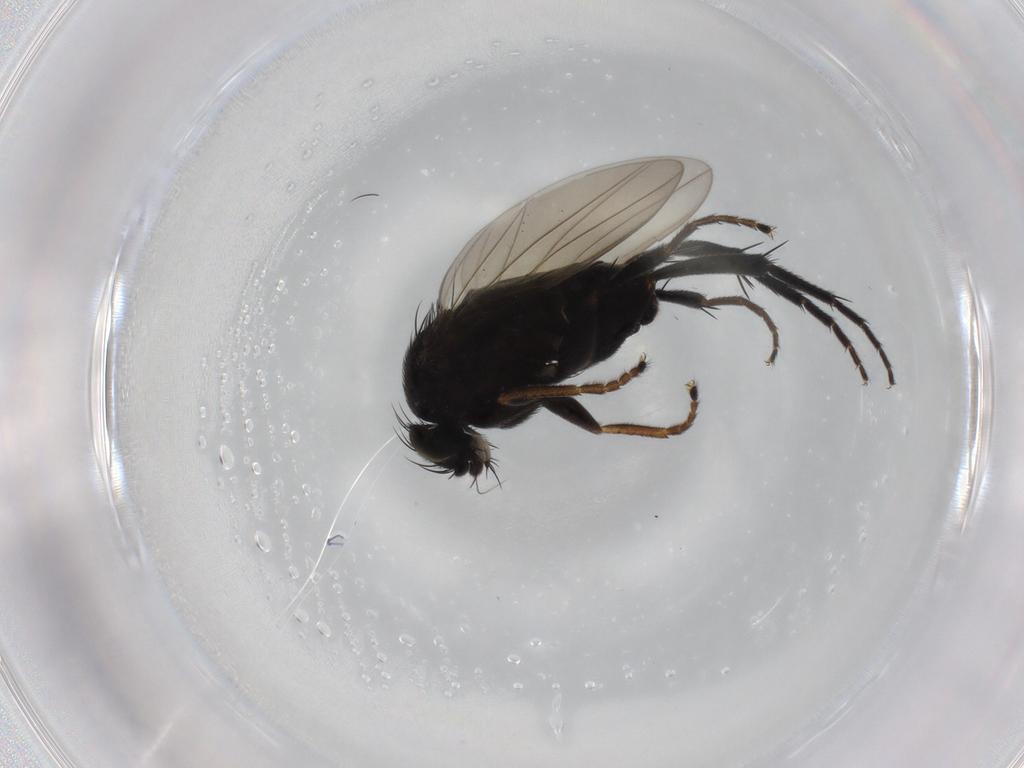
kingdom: Animalia
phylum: Arthropoda
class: Insecta
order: Diptera
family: Phoridae
